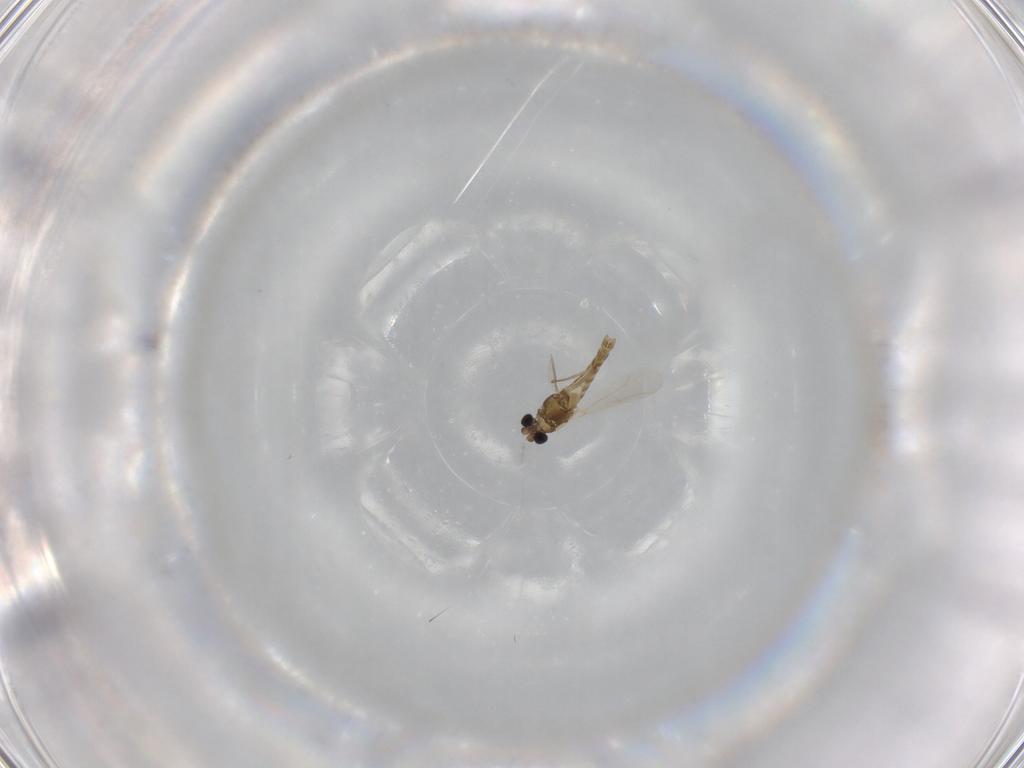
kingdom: Animalia
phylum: Arthropoda
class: Insecta
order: Diptera
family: Chironomidae
